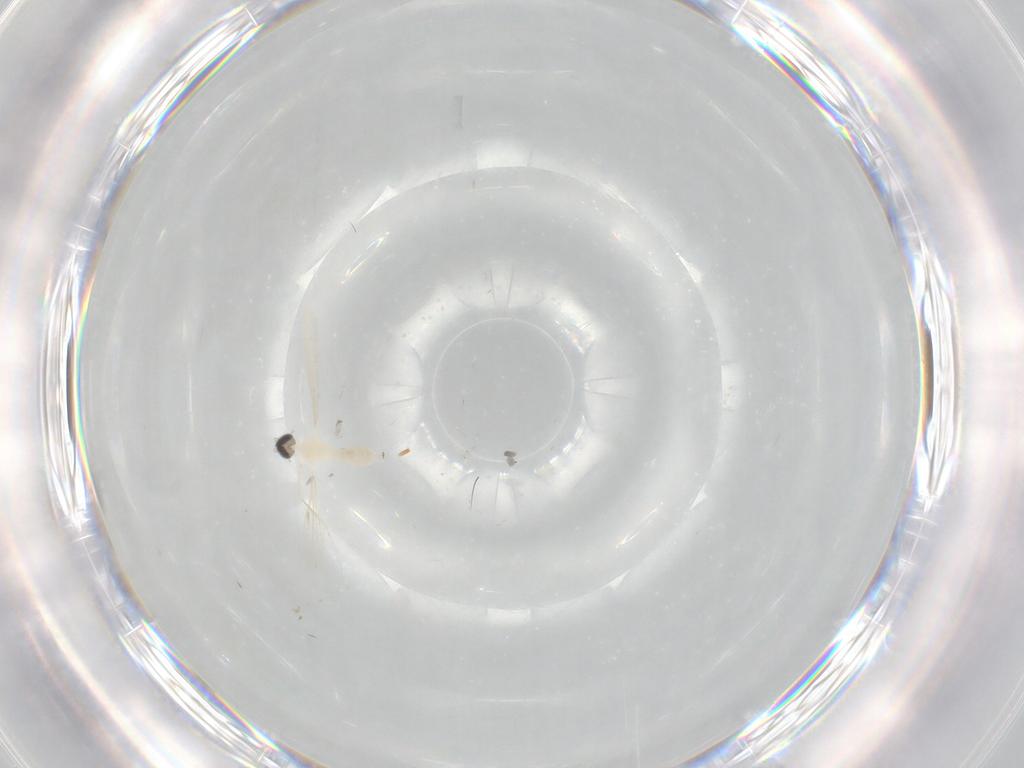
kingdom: Animalia
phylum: Arthropoda
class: Insecta
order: Diptera
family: Cecidomyiidae
